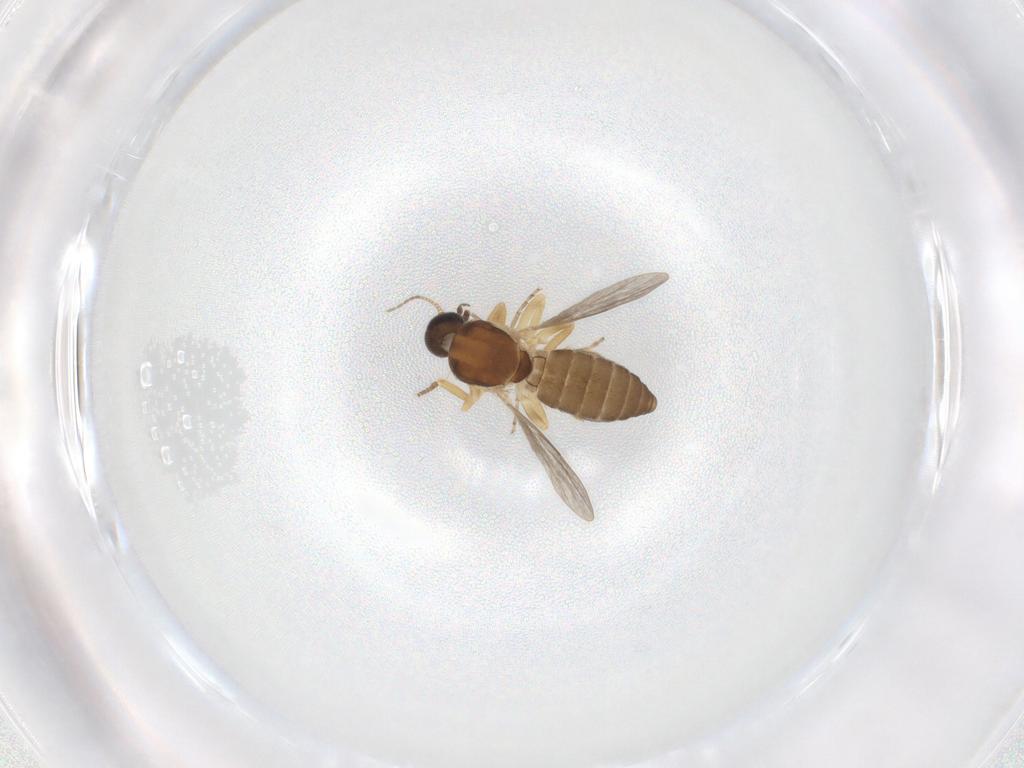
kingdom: Animalia
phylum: Arthropoda
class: Insecta
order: Diptera
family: Ceratopogonidae
